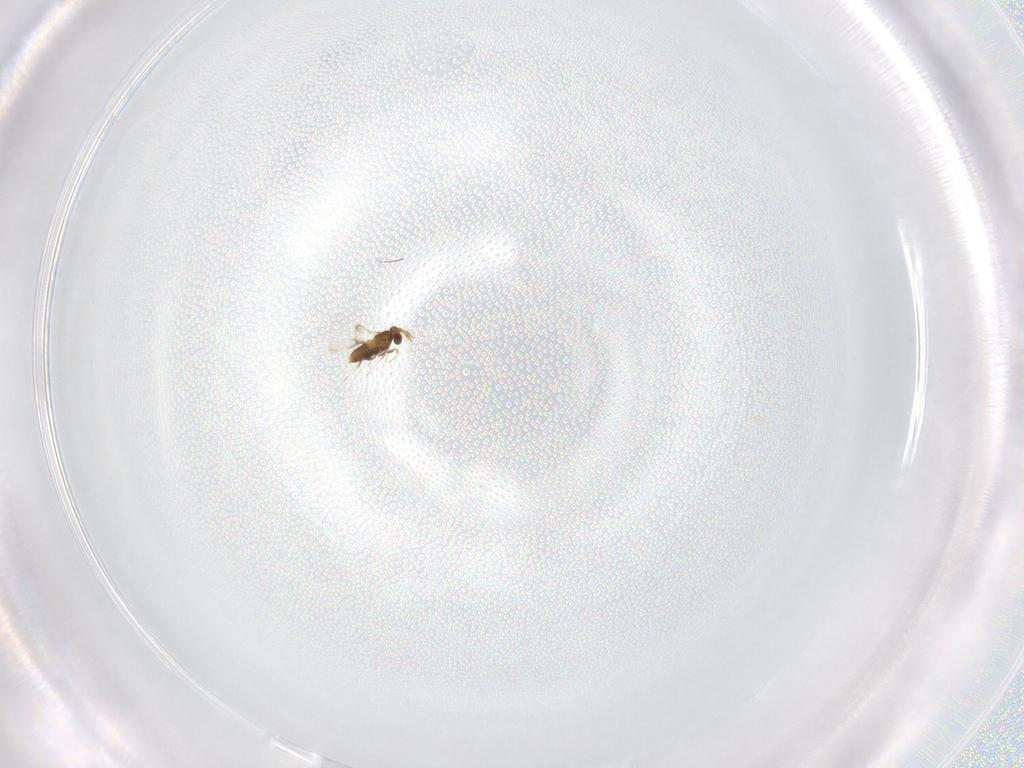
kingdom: Animalia
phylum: Arthropoda
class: Insecta
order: Hymenoptera
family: Trichogrammatidae
